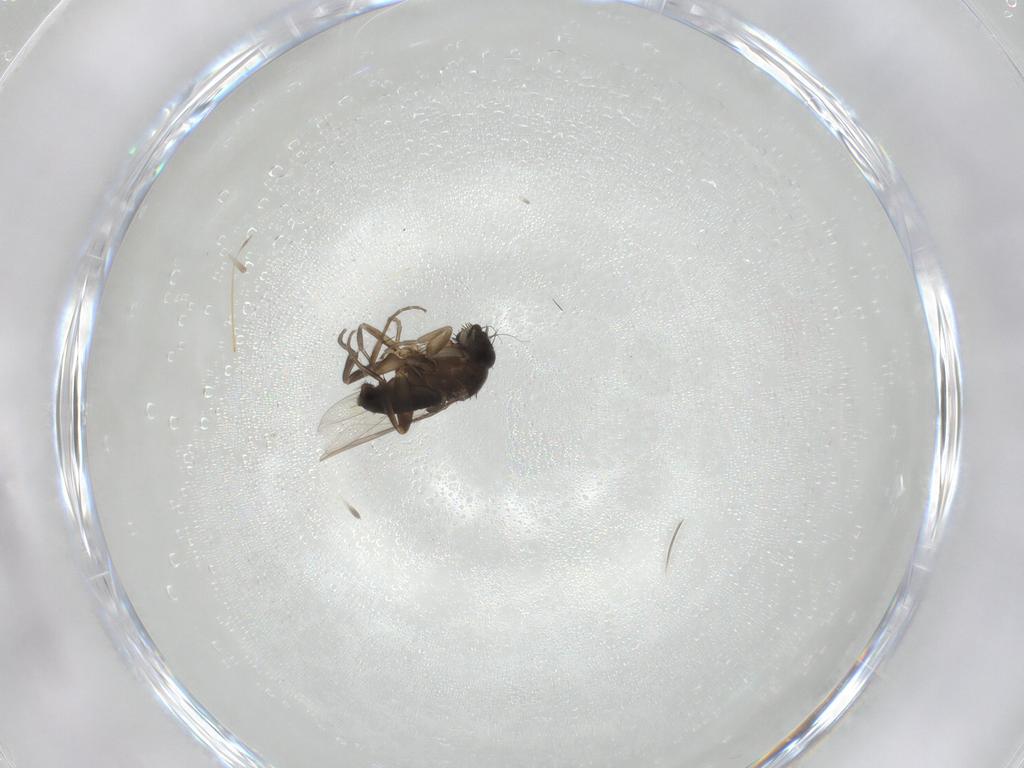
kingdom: Animalia
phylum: Arthropoda
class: Insecta
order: Diptera
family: Phoridae
